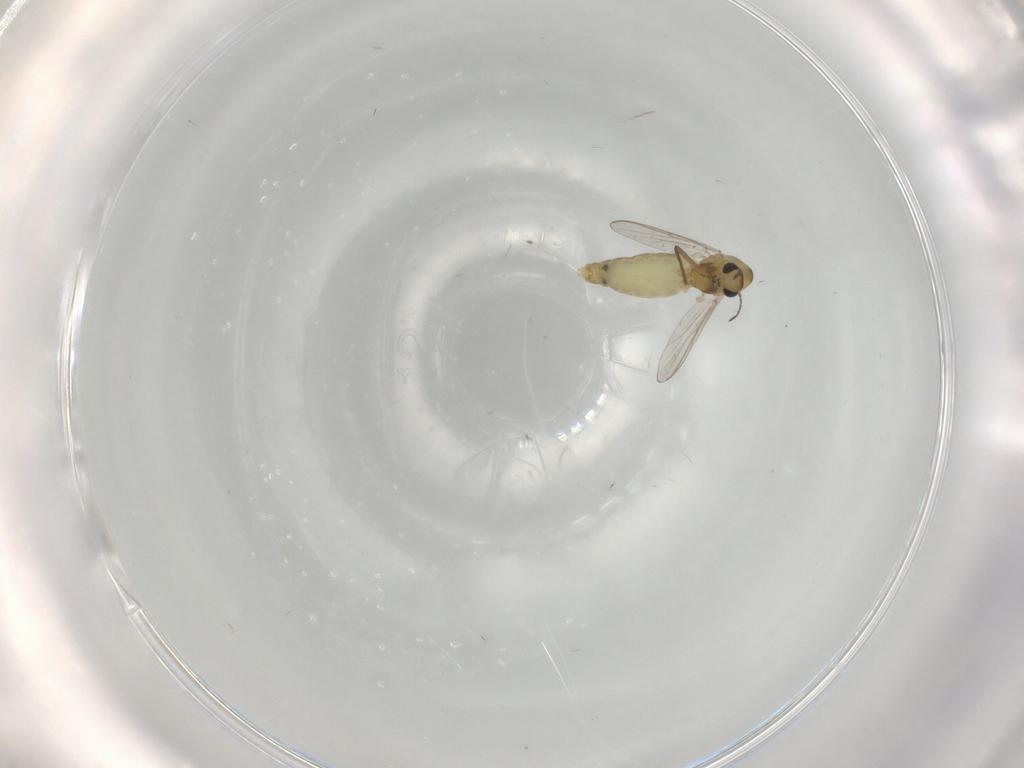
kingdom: Animalia
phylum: Arthropoda
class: Insecta
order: Diptera
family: Chironomidae
